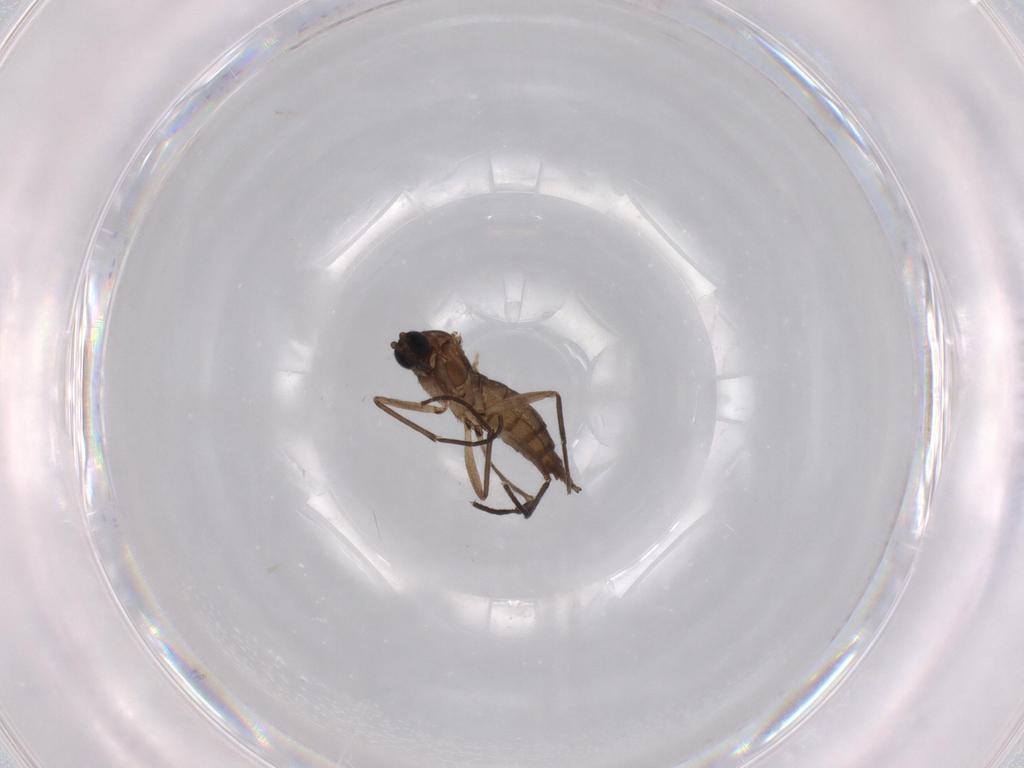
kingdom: Animalia
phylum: Arthropoda
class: Insecta
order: Diptera
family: Sciaridae
